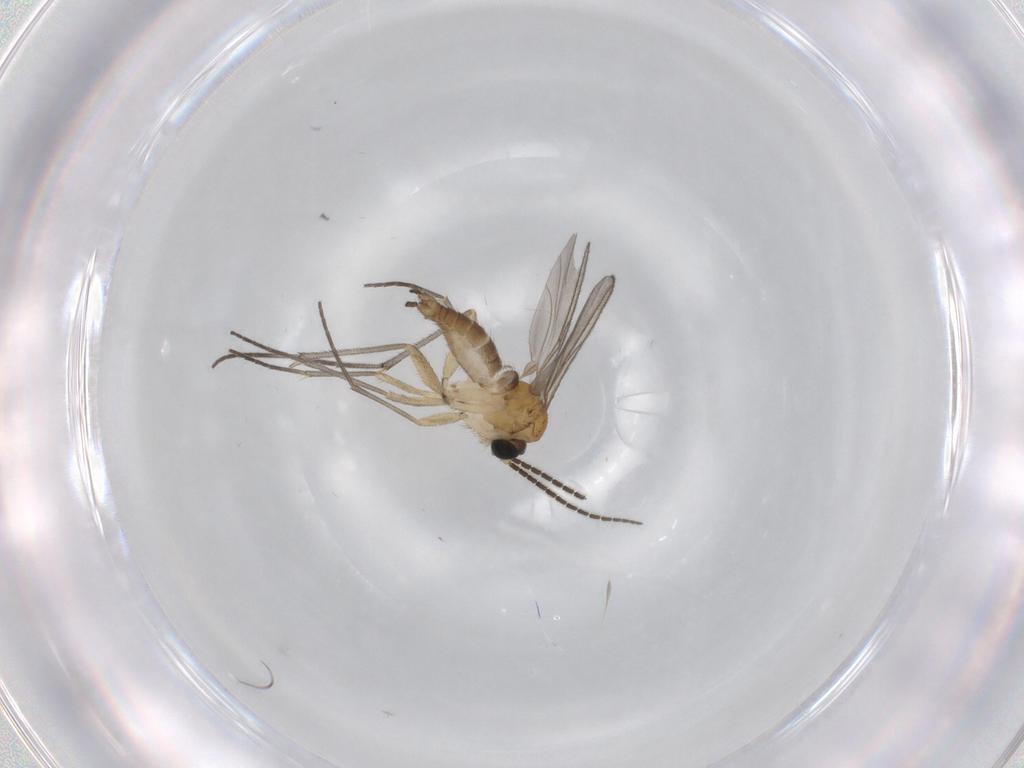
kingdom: Animalia
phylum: Arthropoda
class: Insecta
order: Diptera
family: Sciaridae
